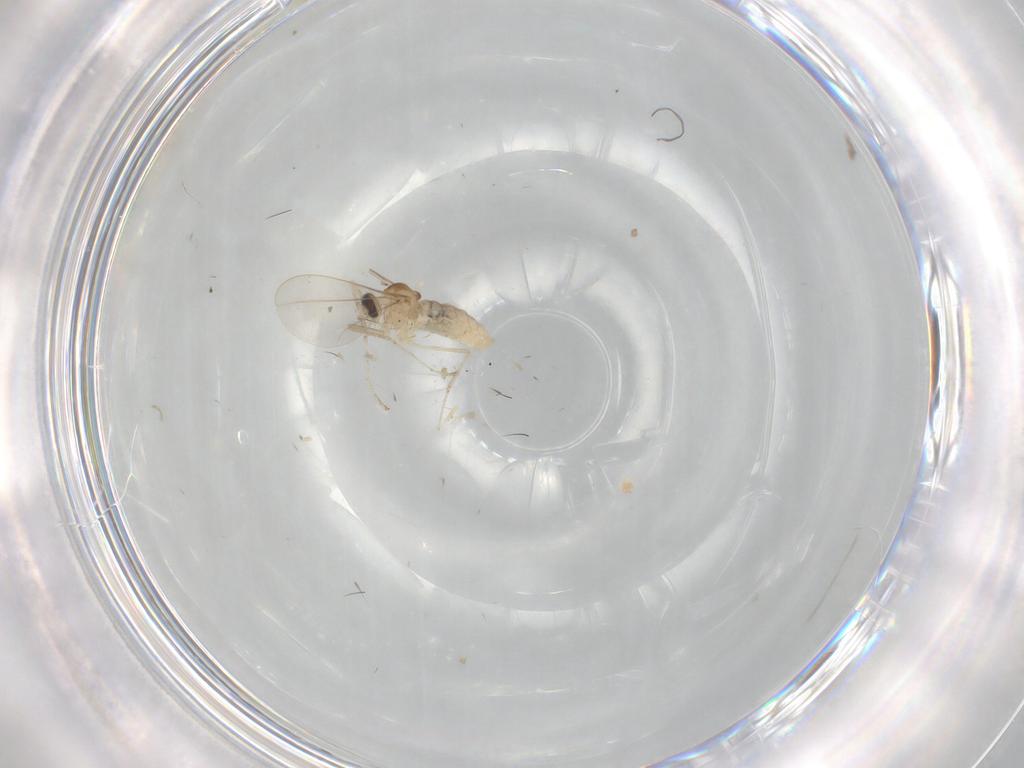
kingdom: Animalia
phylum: Arthropoda
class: Insecta
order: Diptera
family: Cecidomyiidae
